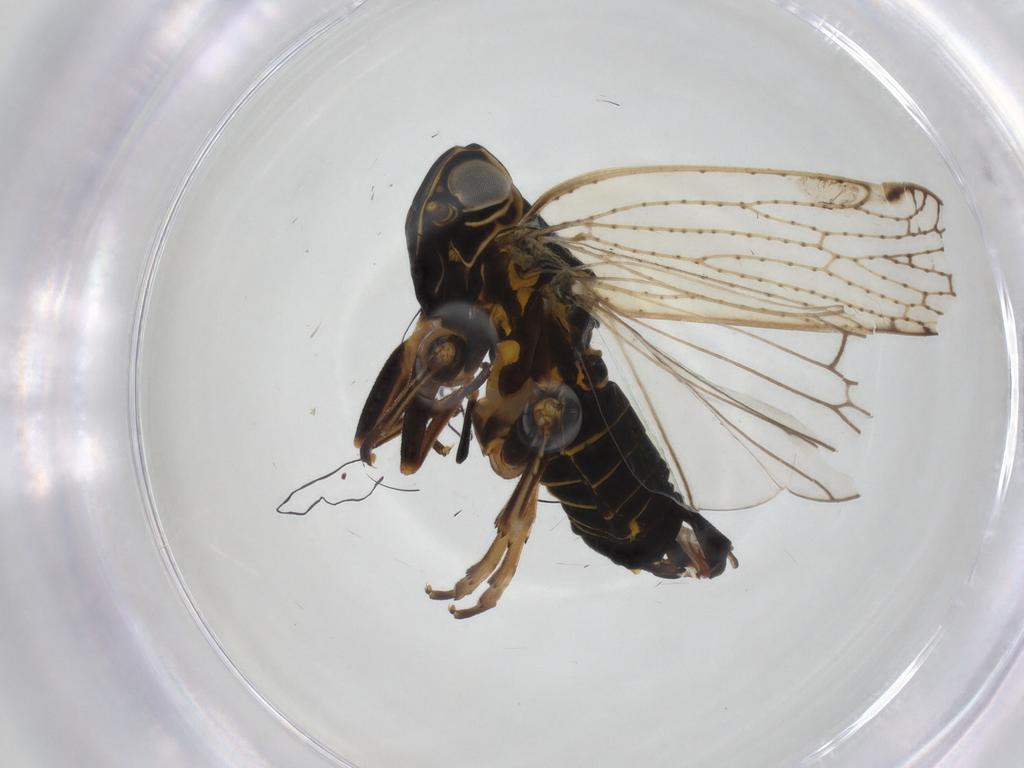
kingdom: Animalia
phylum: Arthropoda
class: Insecta
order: Hemiptera
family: Cixiidae
